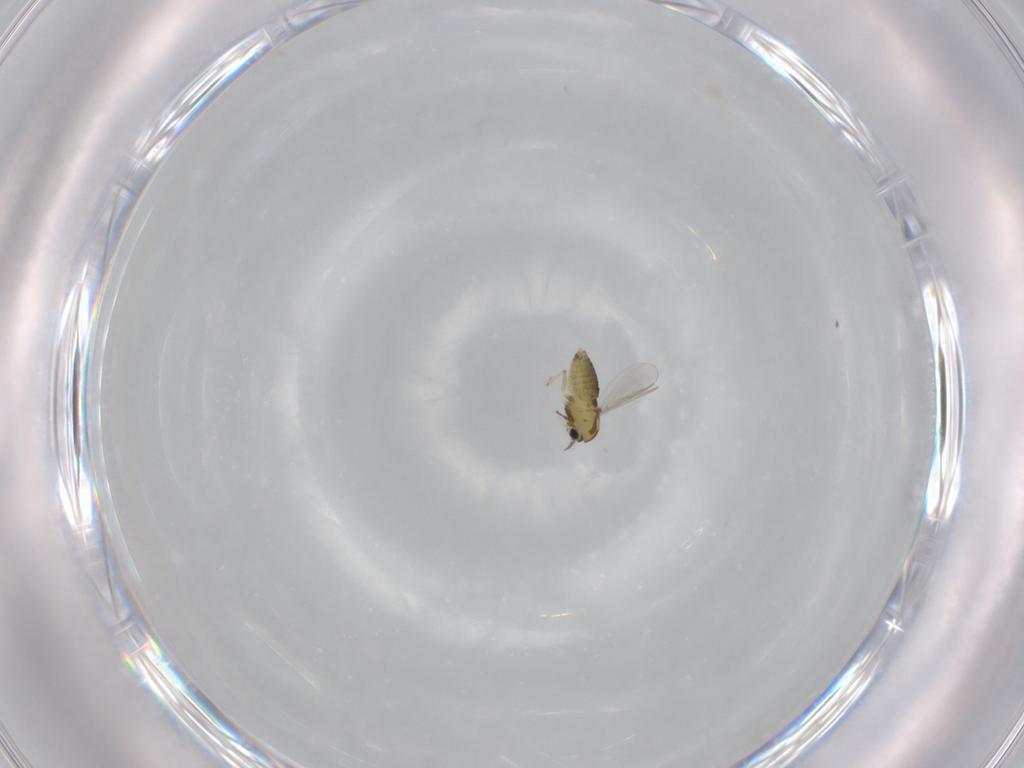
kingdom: Animalia
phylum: Arthropoda
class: Insecta
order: Diptera
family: Chironomidae
